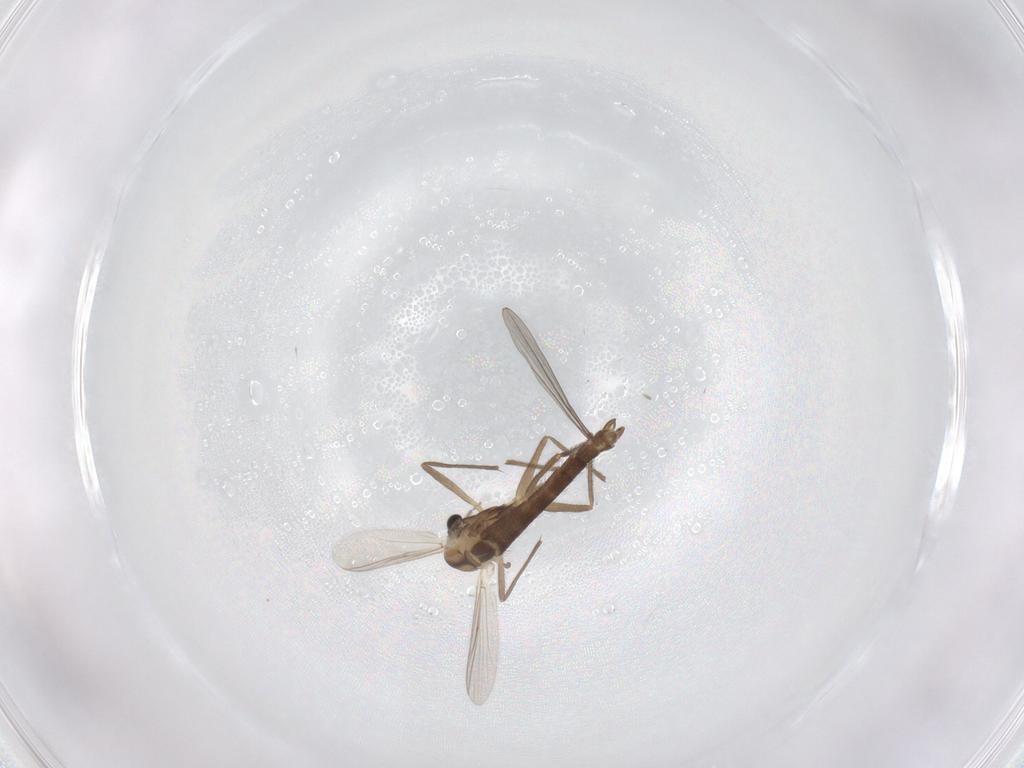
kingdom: Animalia
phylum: Arthropoda
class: Insecta
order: Diptera
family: Chironomidae
